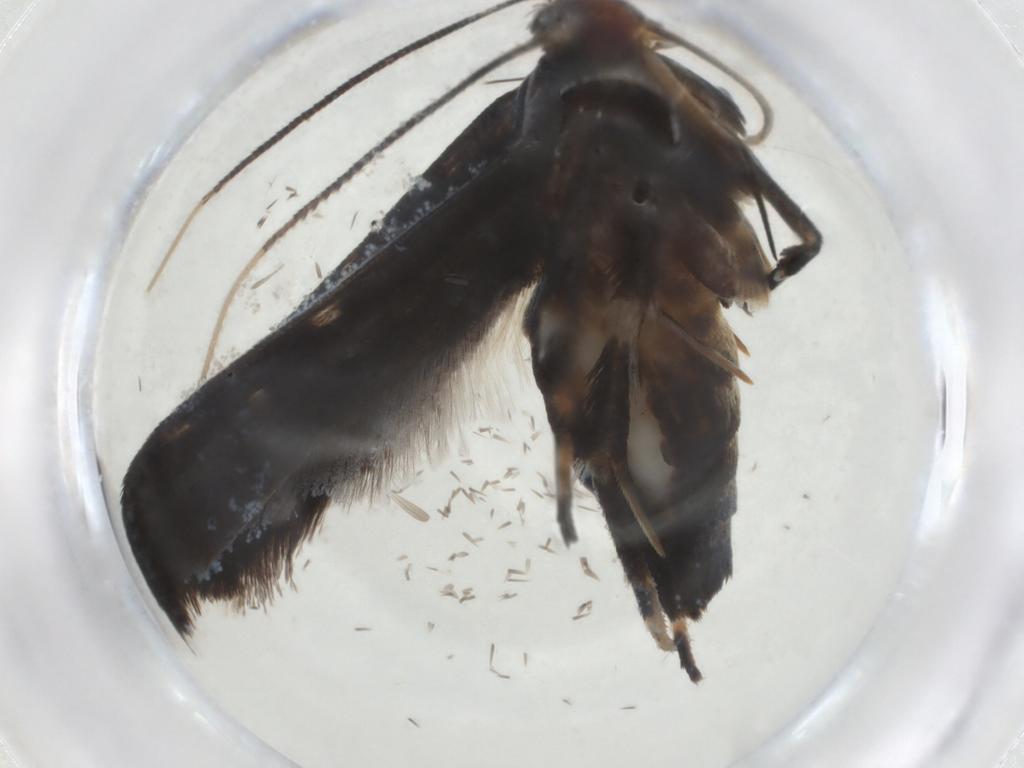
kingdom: Animalia
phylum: Arthropoda
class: Insecta
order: Lepidoptera
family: Gelechiidae
